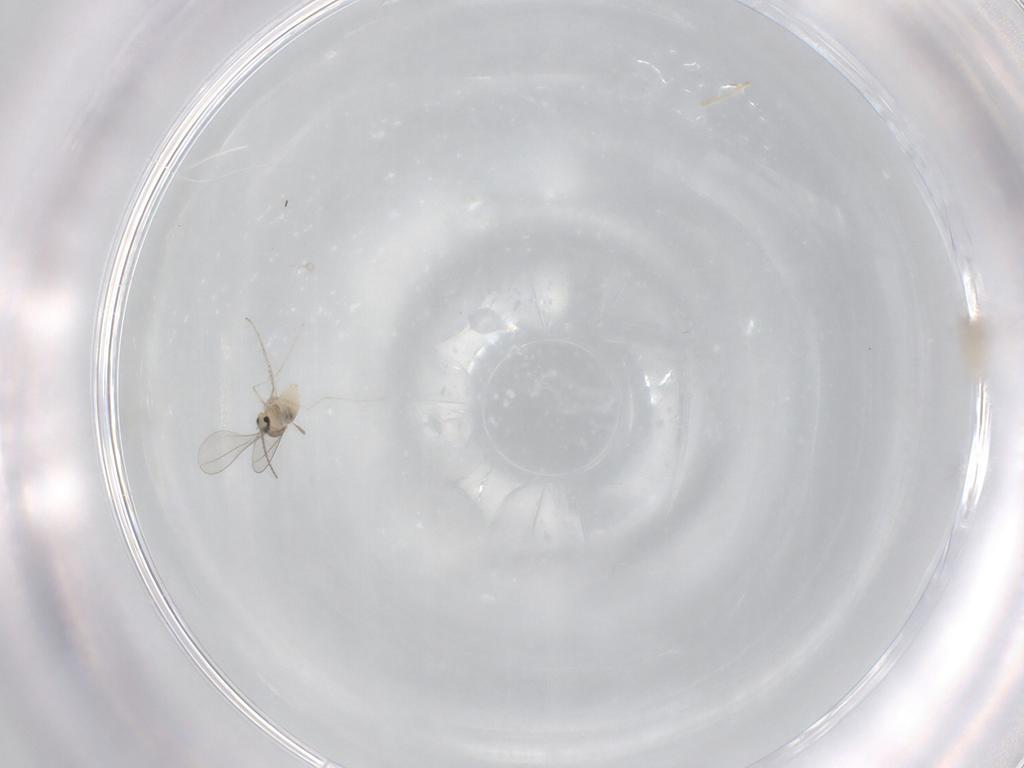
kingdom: Animalia
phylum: Arthropoda
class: Insecta
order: Diptera
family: Cecidomyiidae
